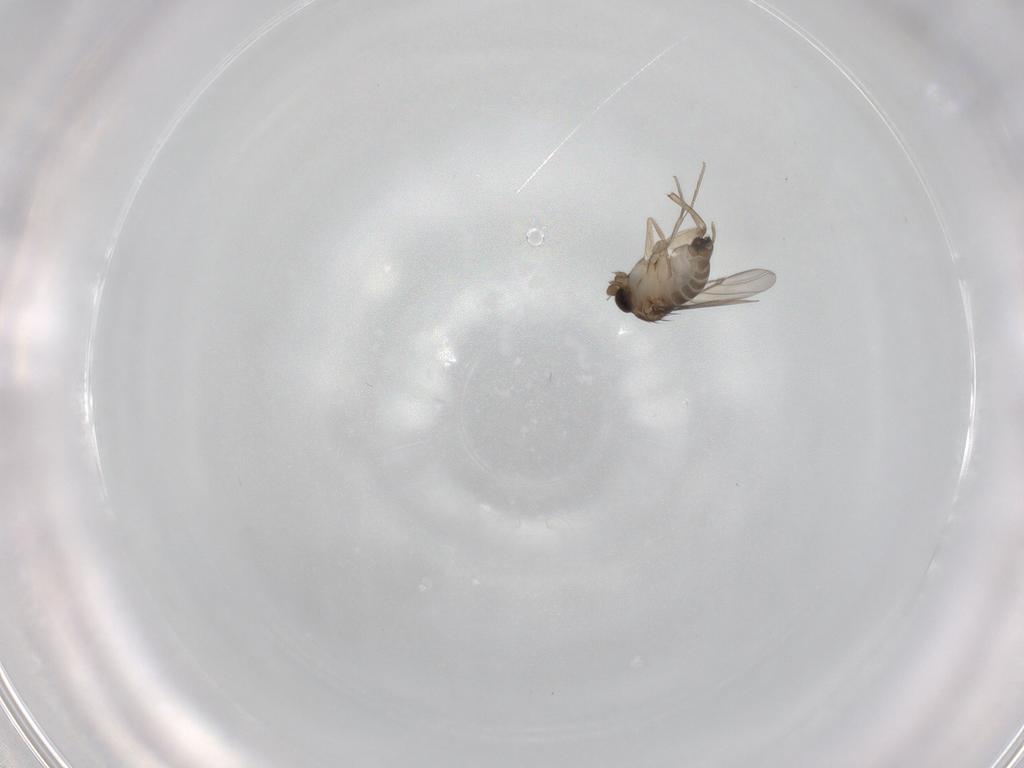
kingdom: Animalia
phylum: Arthropoda
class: Insecta
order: Diptera
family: Phoridae
